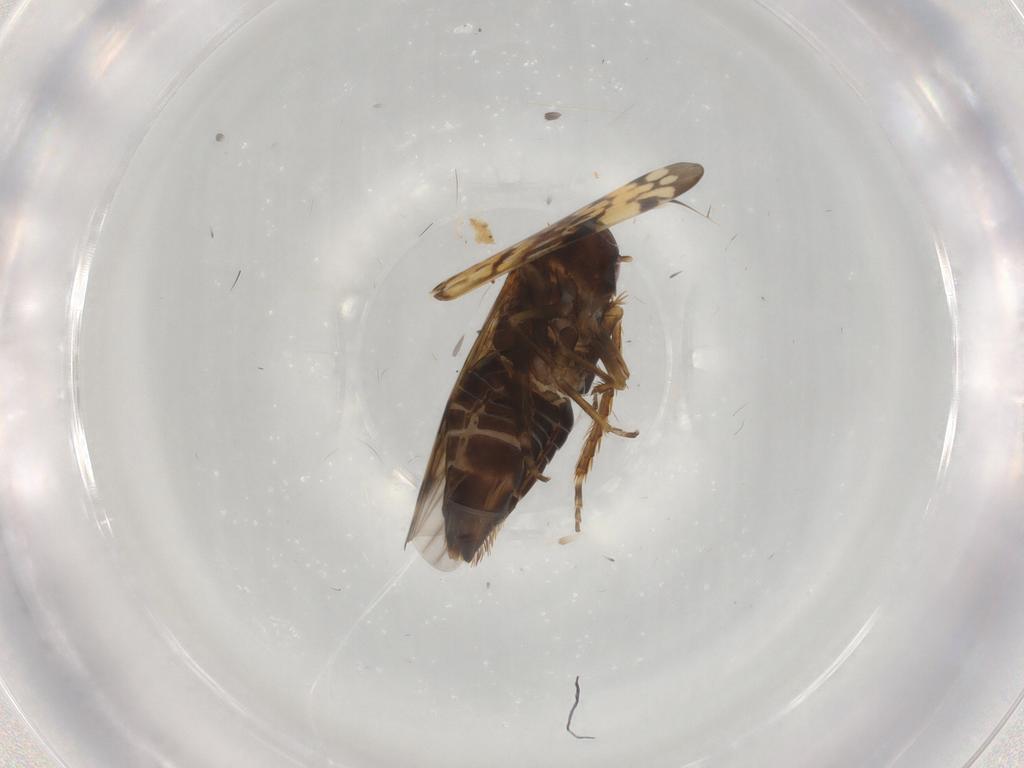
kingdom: Animalia
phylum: Arthropoda
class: Insecta
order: Hemiptera
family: Cicadellidae
